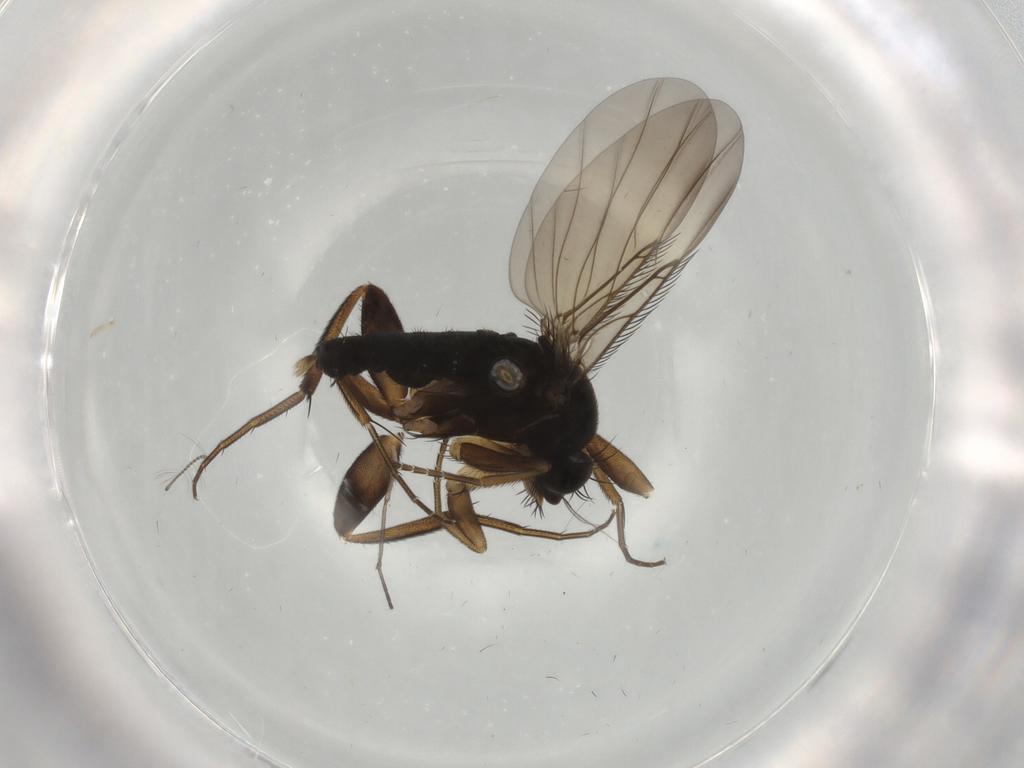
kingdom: Animalia
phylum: Arthropoda
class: Insecta
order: Diptera
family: Phoridae
